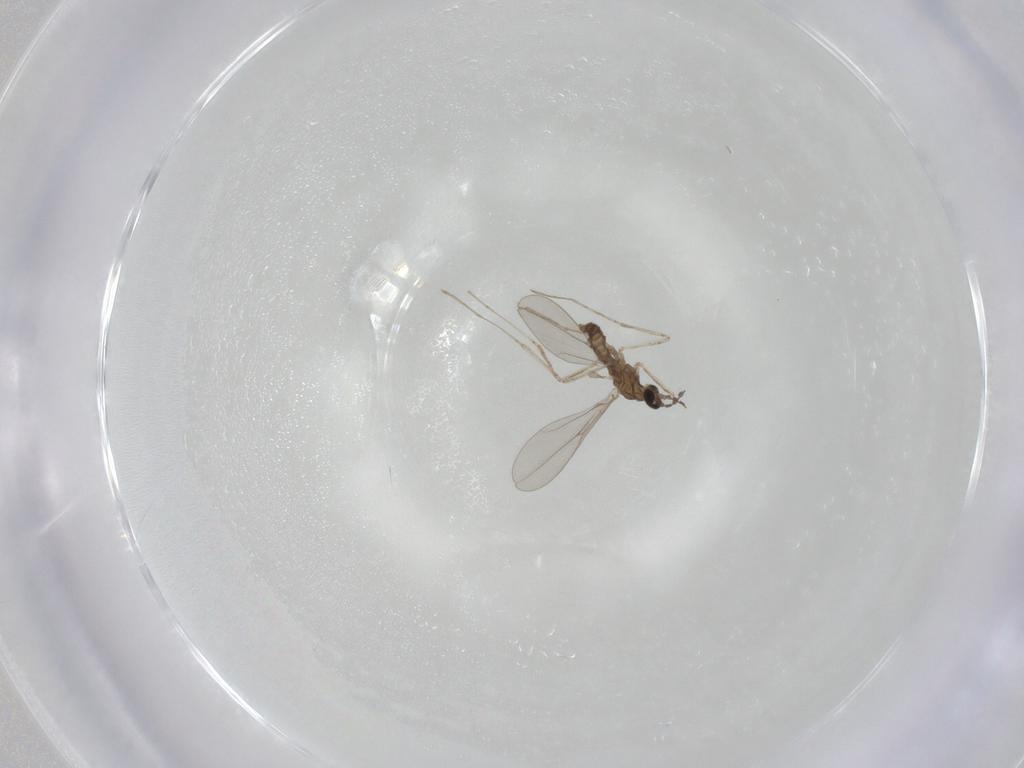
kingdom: Animalia
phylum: Arthropoda
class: Insecta
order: Diptera
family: Cecidomyiidae
